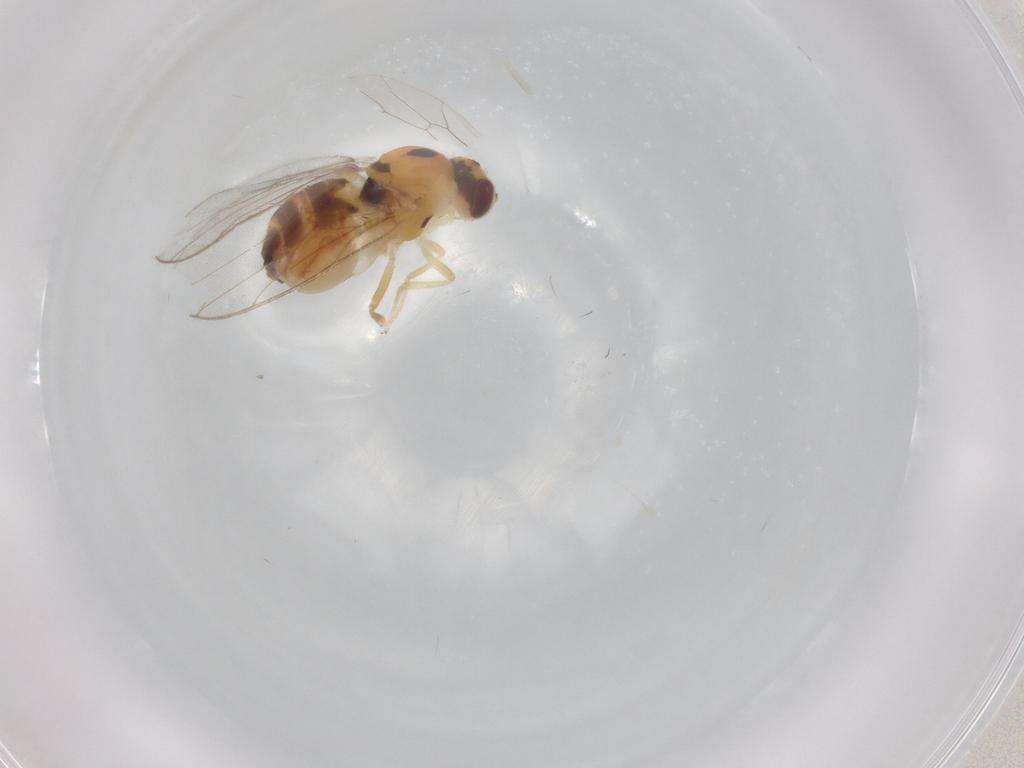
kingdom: Animalia
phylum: Arthropoda
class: Insecta
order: Diptera
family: Chloropidae
